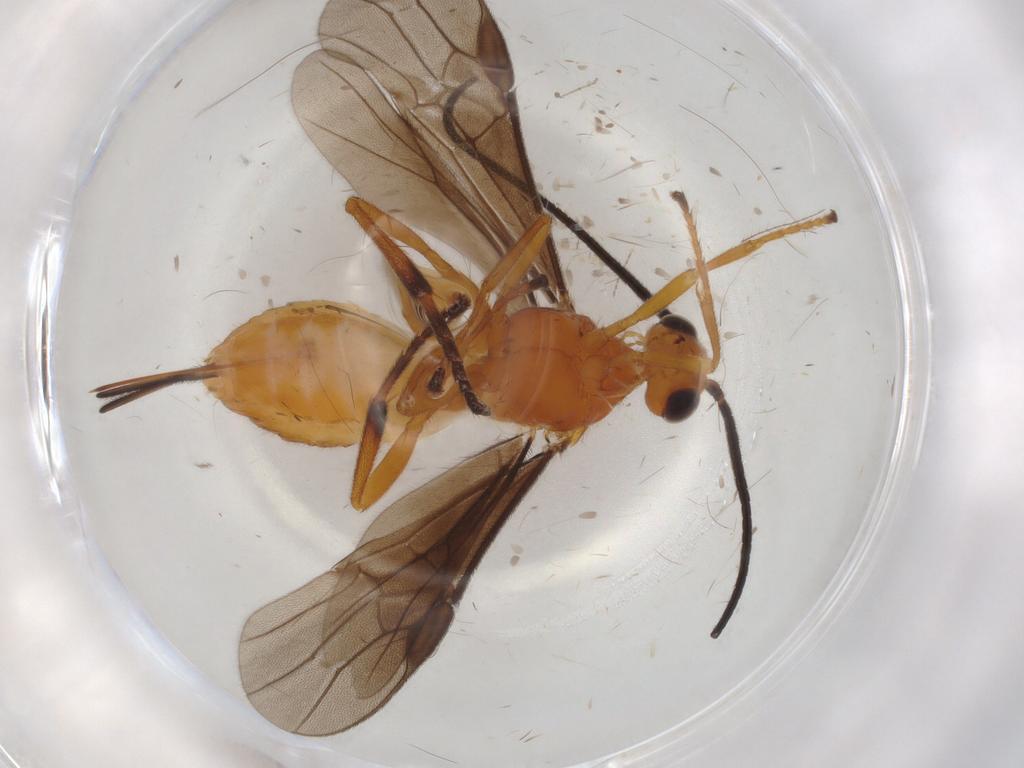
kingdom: Animalia
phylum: Arthropoda
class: Insecta
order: Hymenoptera
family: Braconidae
